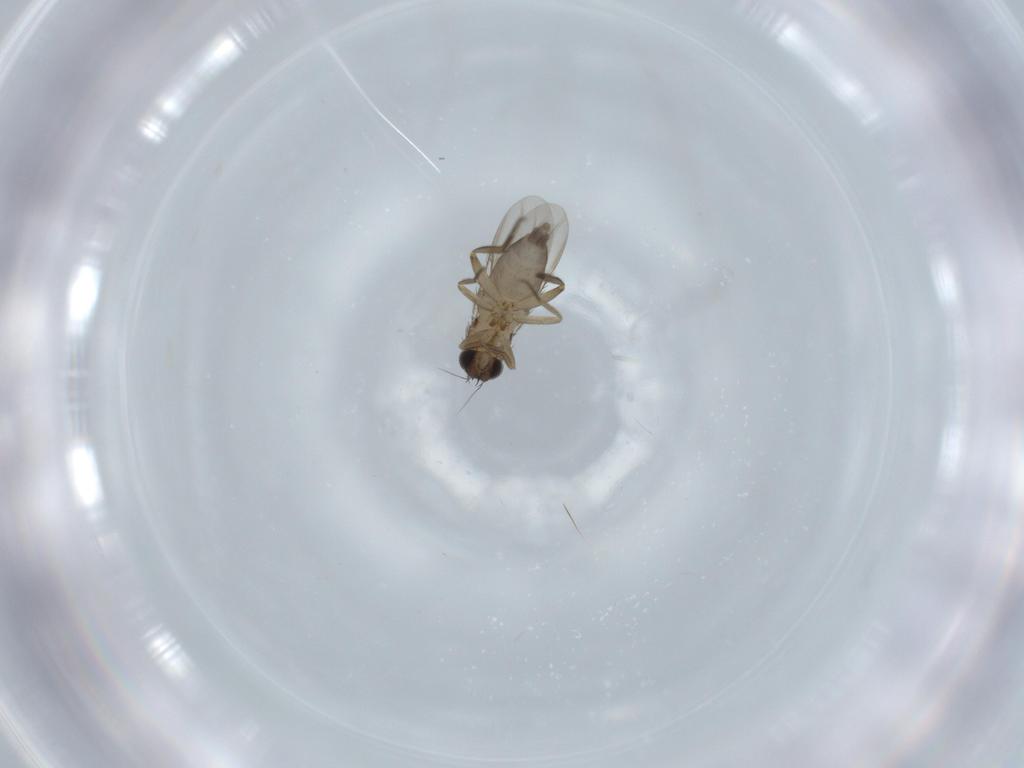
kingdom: Animalia
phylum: Arthropoda
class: Insecta
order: Diptera
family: Phoridae
